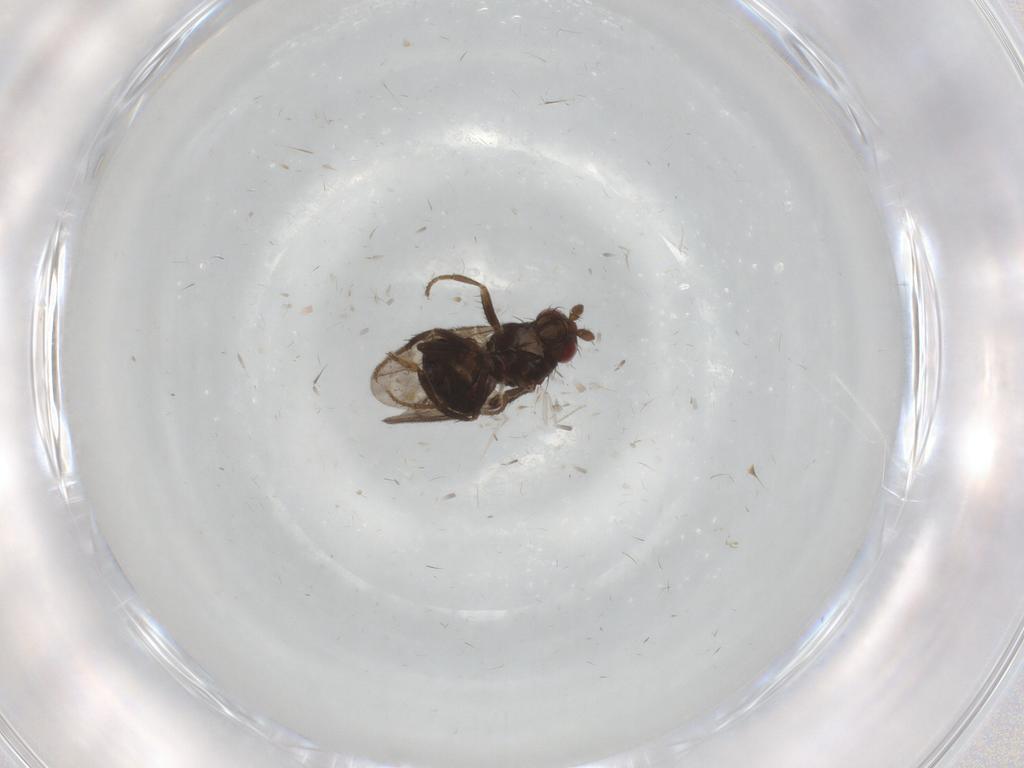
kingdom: Animalia
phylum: Arthropoda
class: Insecta
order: Diptera
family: Sphaeroceridae
